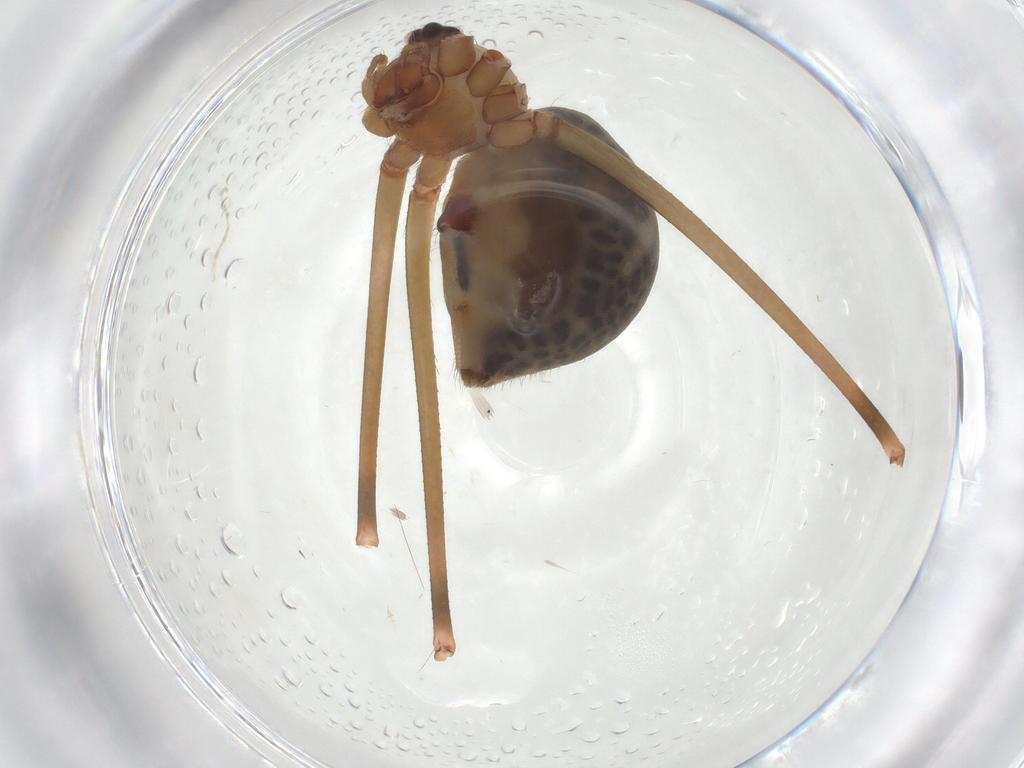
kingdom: Animalia
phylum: Arthropoda
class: Arachnida
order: Araneae
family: Pholcidae
